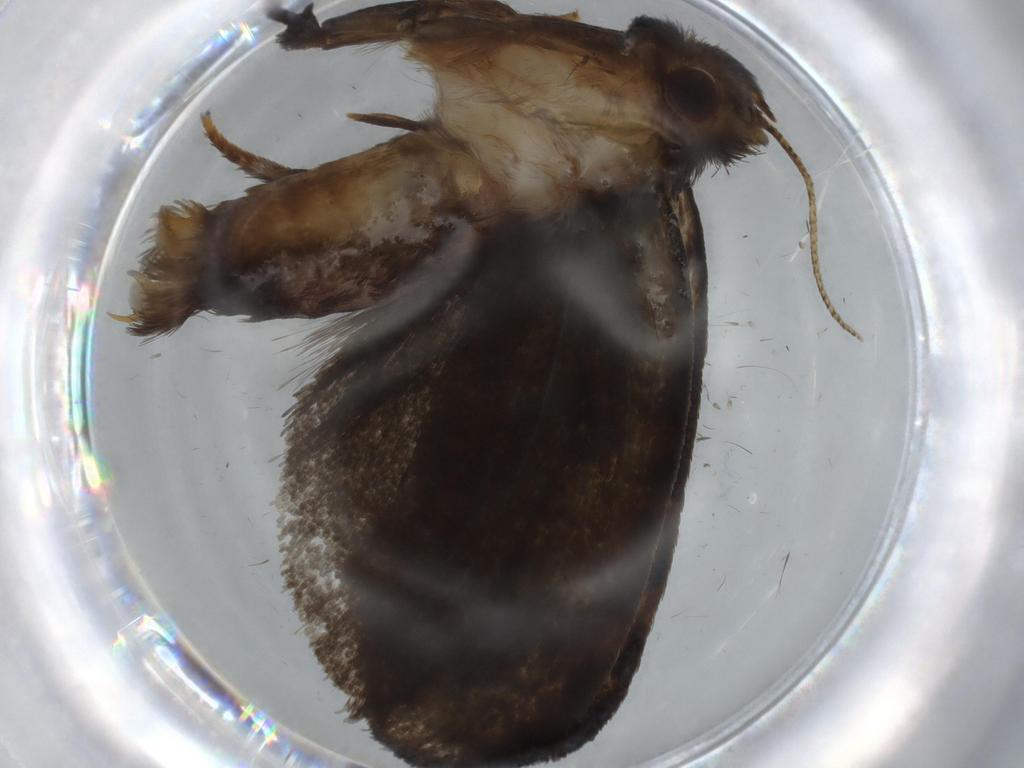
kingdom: Animalia
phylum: Arthropoda
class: Insecta
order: Lepidoptera
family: Tineidae
